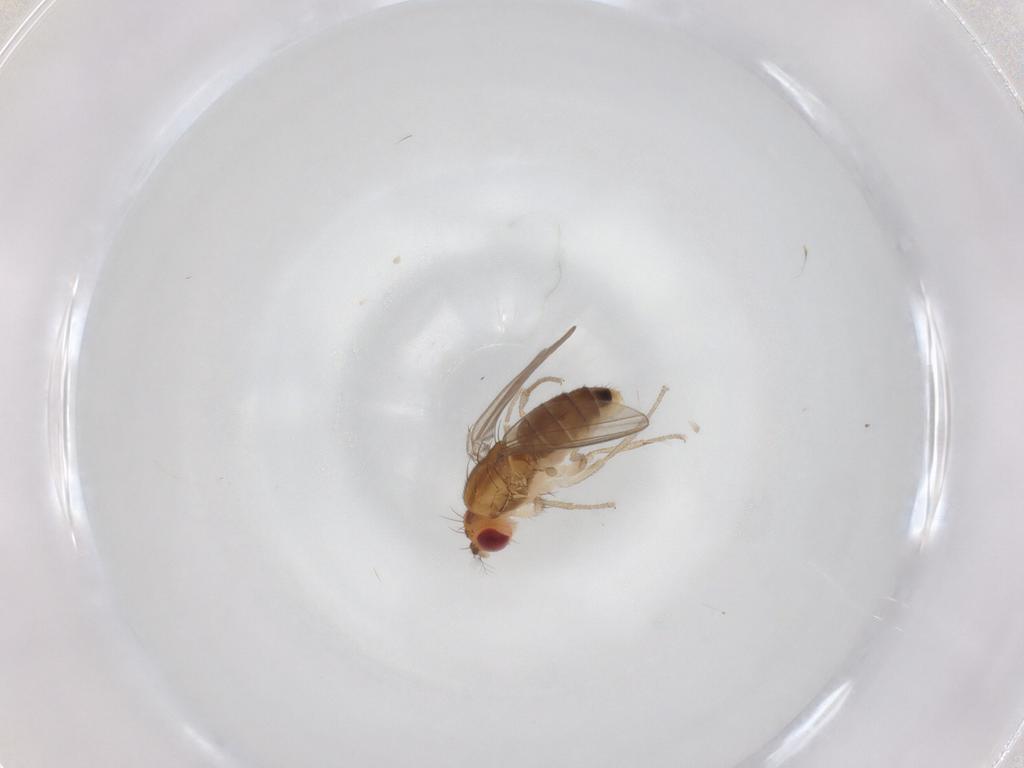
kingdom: Animalia
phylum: Arthropoda
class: Insecta
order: Diptera
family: Drosophilidae
